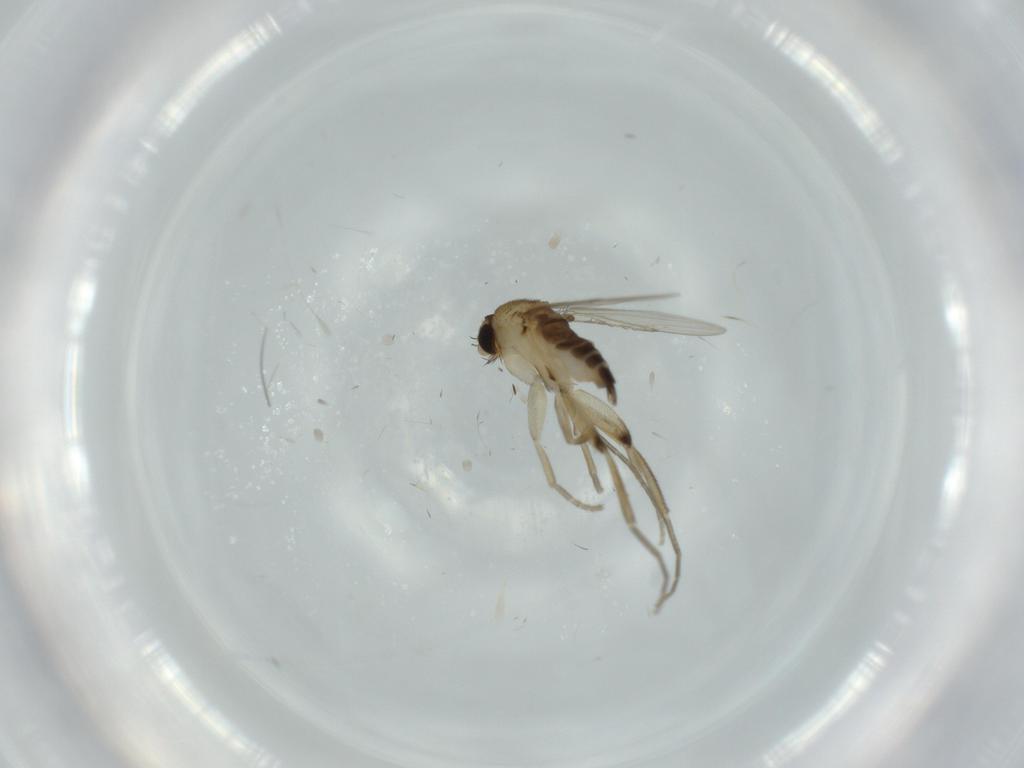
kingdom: Animalia
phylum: Arthropoda
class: Insecta
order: Diptera
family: Phoridae
